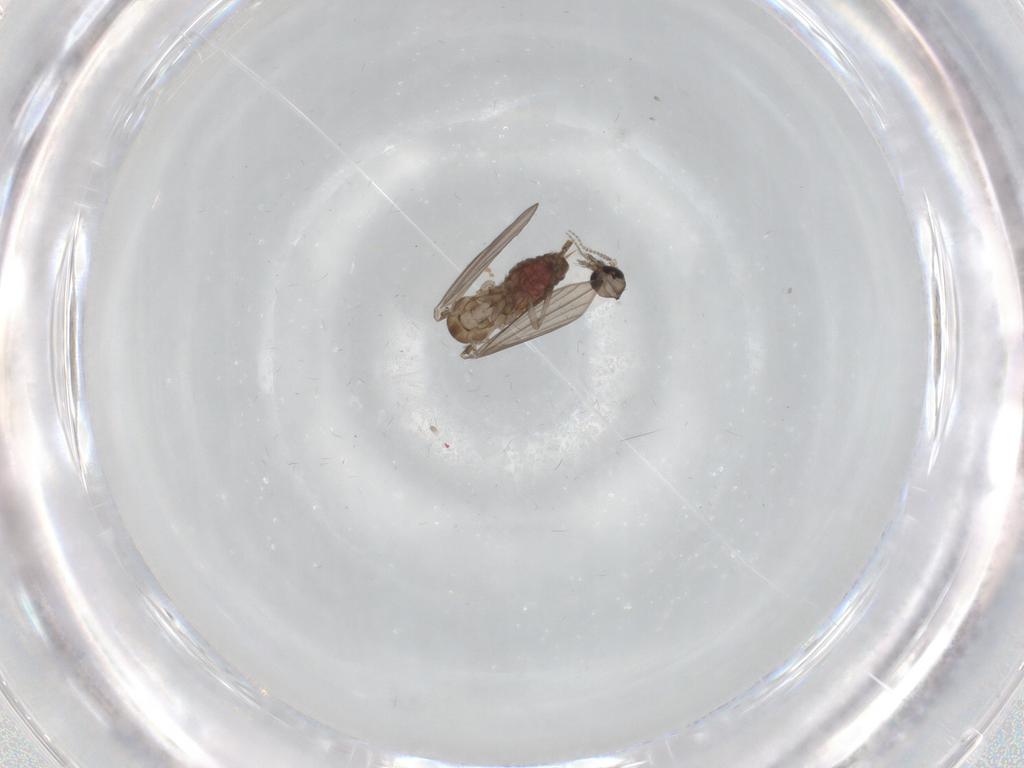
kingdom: Animalia
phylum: Arthropoda
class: Insecta
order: Diptera
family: Psychodidae
